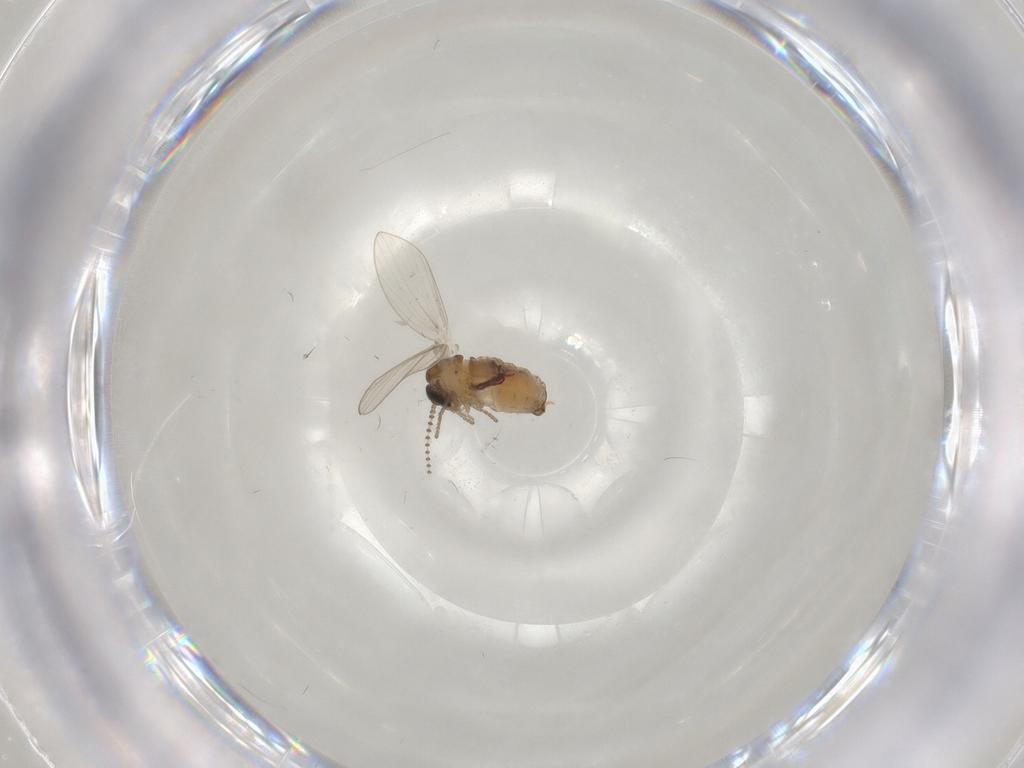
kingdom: Animalia
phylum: Arthropoda
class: Insecta
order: Diptera
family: Psychodidae
